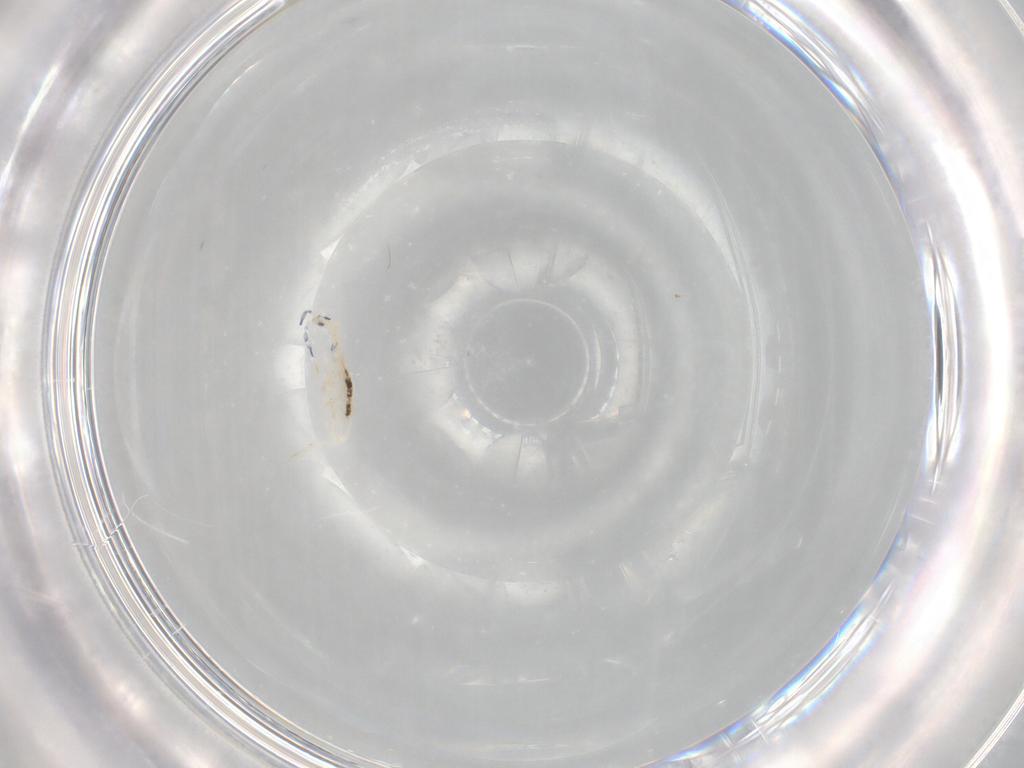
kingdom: Animalia
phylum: Arthropoda
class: Collembola
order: Entomobryomorpha
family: Entomobryidae
